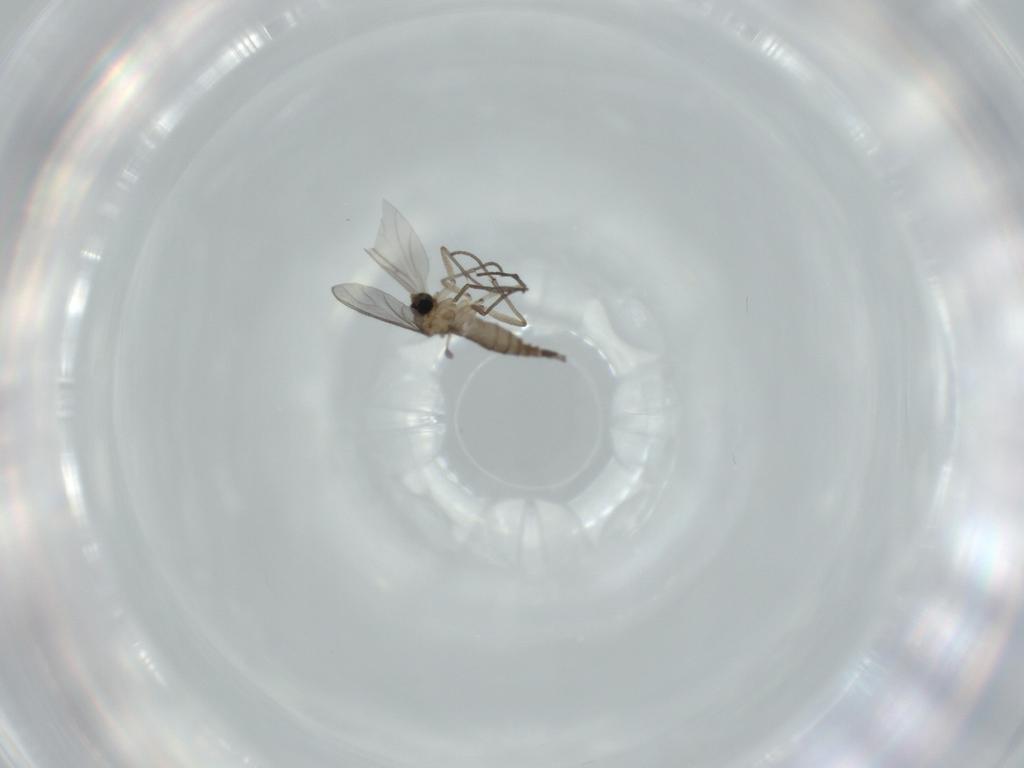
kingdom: Animalia
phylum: Arthropoda
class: Insecta
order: Diptera
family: Sciaridae
